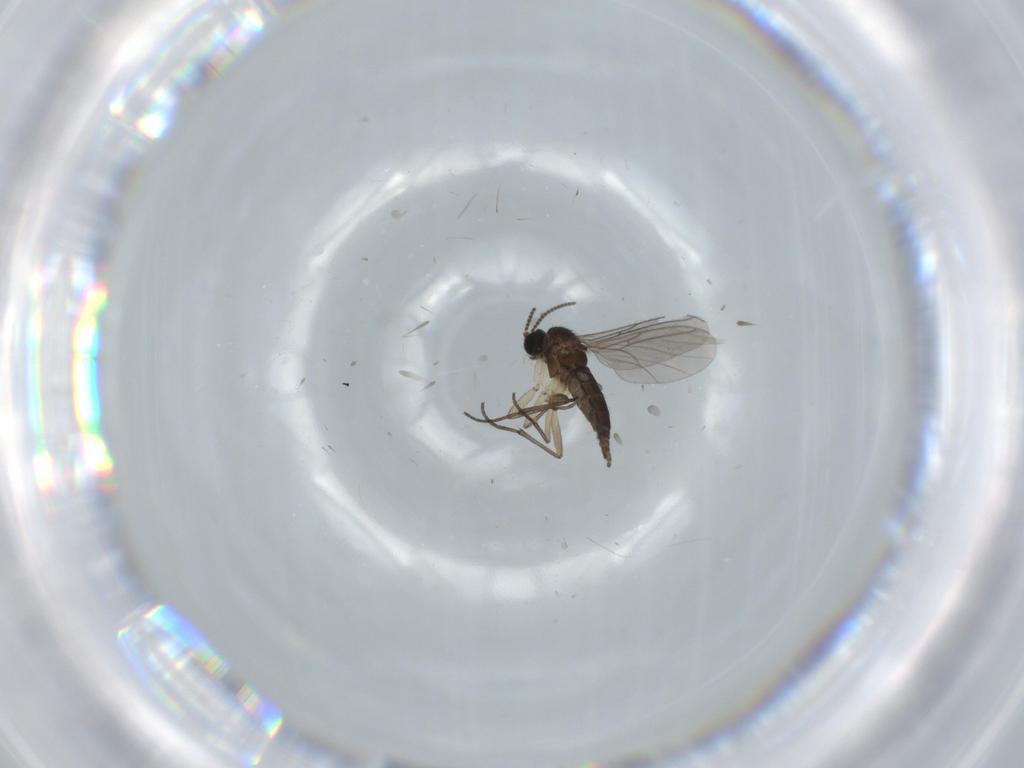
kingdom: Animalia
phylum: Arthropoda
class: Insecta
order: Diptera
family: Sciaridae
